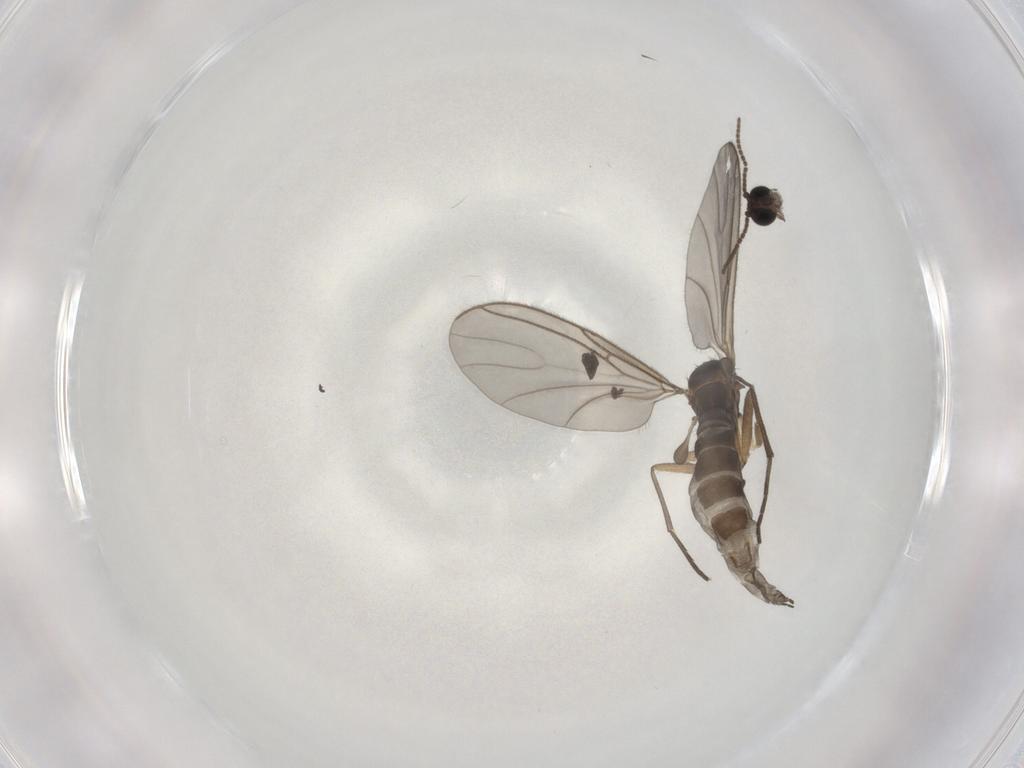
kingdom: Animalia
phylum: Arthropoda
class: Insecta
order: Diptera
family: Sciaridae
